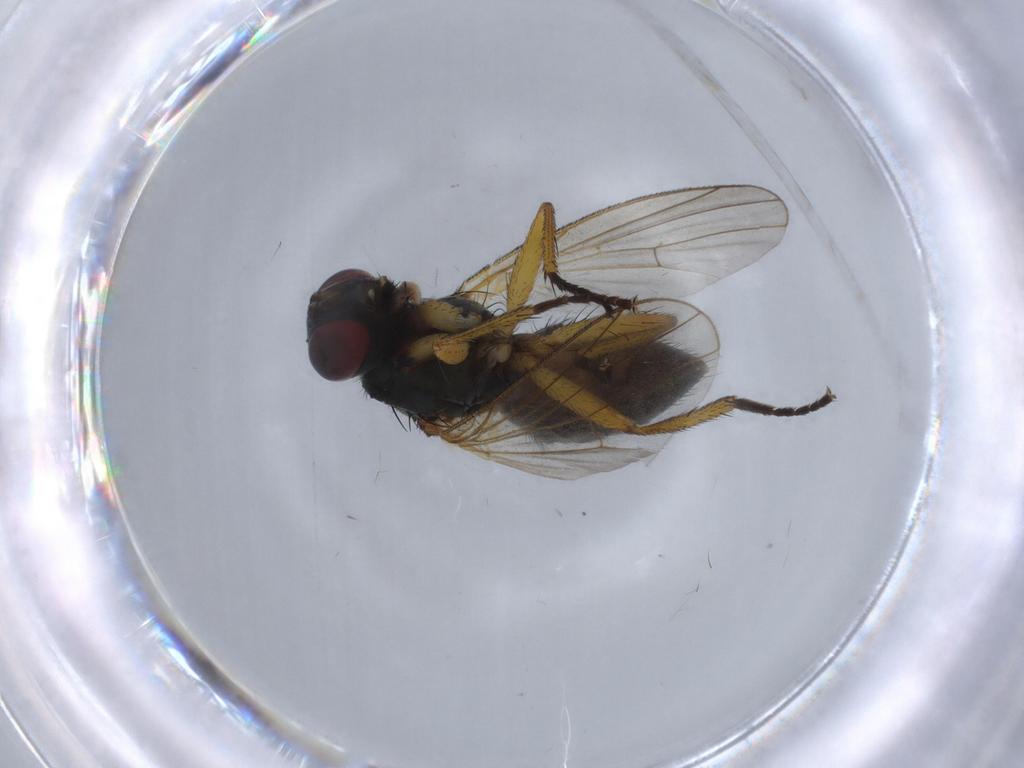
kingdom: Animalia
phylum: Arthropoda
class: Insecta
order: Diptera
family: Muscidae
